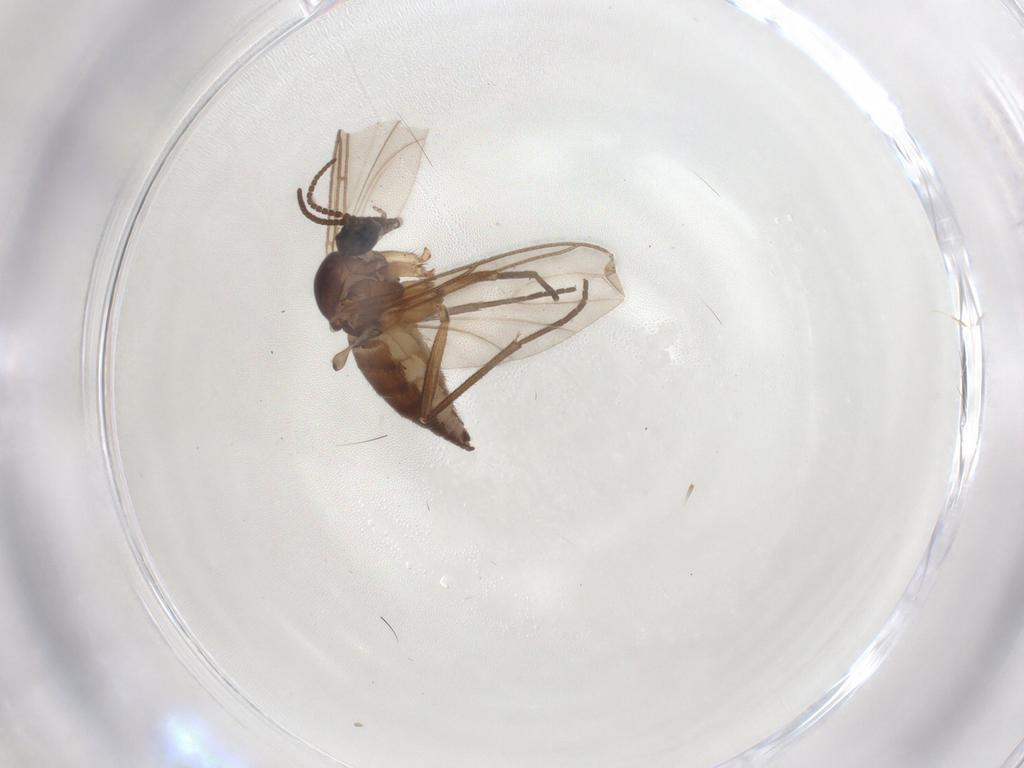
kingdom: Animalia
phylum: Arthropoda
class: Insecta
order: Diptera
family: Sciaridae
